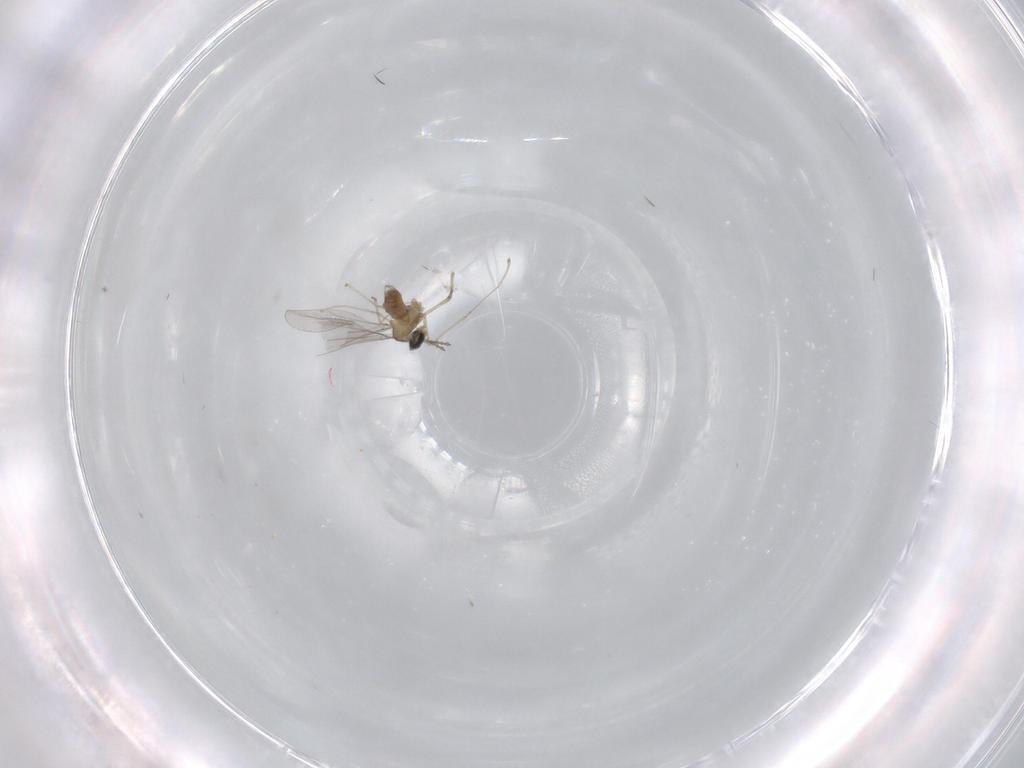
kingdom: Animalia
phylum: Arthropoda
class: Insecta
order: Diptera
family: Cecidomyiidae
